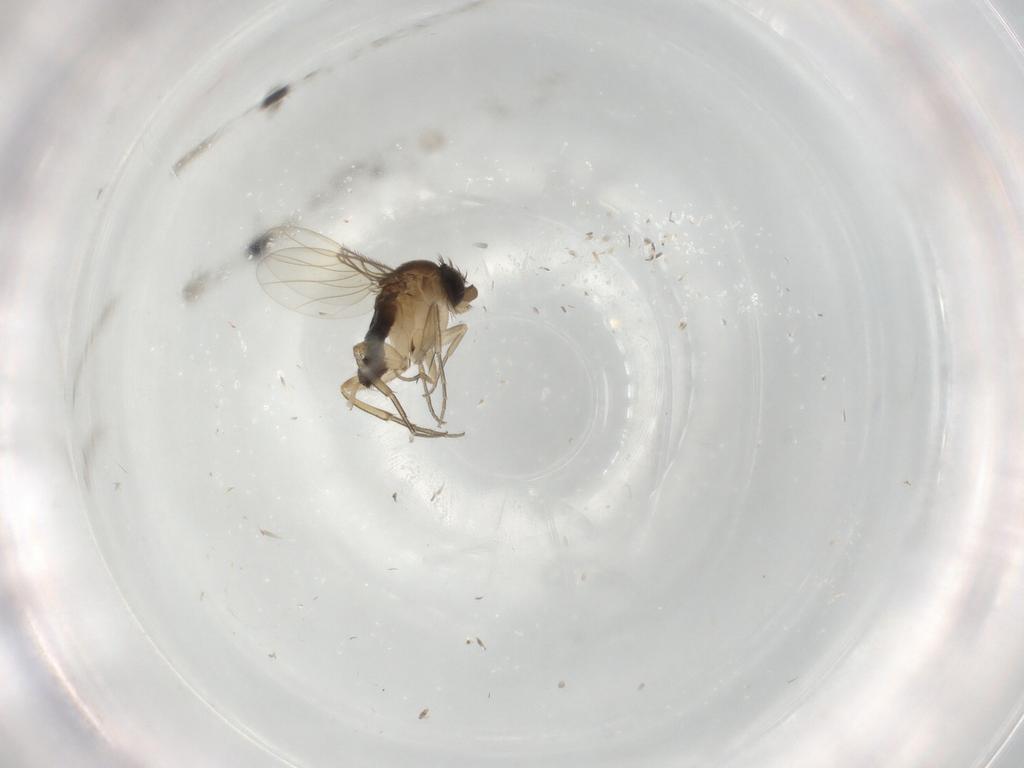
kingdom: Animalia
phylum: Arthropoda
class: Insecta
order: Diptera
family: Phoridae
